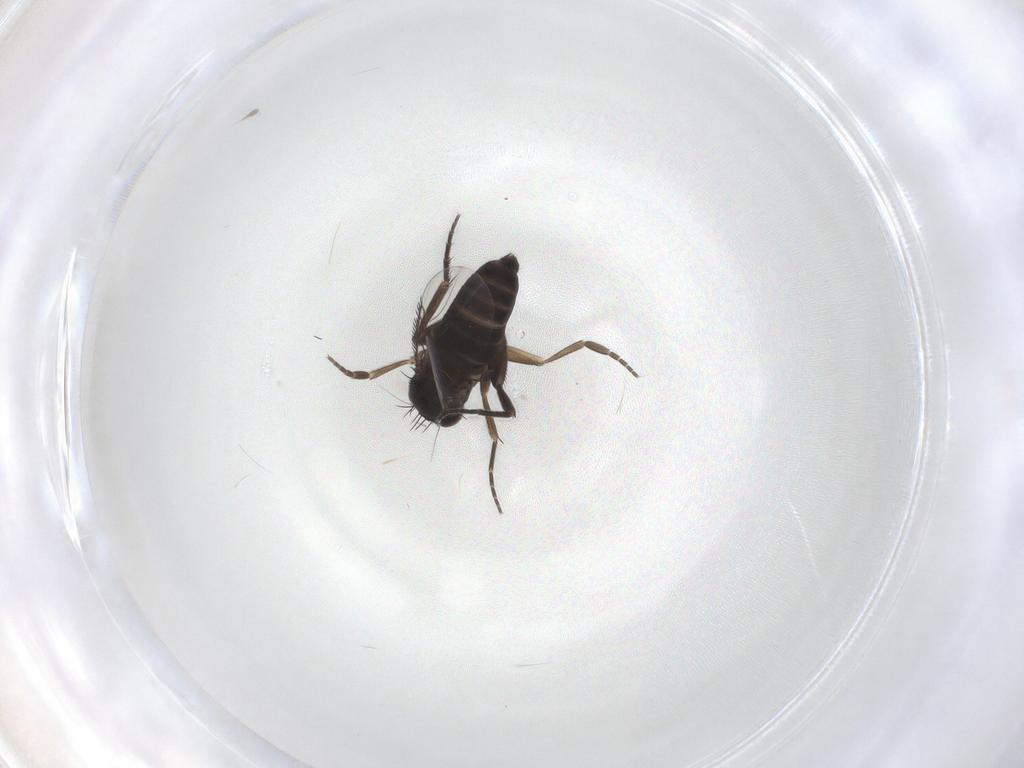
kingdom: Animalia
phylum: Arthropoda
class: Insecta
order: Diptera
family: Phoridae
